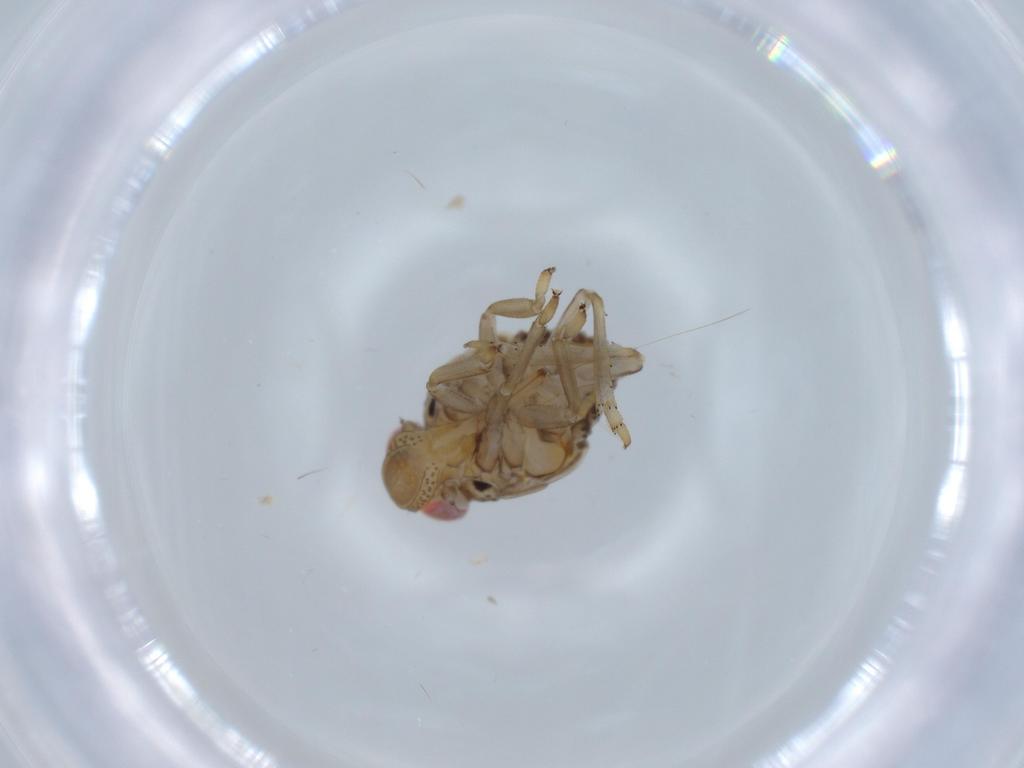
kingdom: Animalia
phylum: Arthropoda
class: Insecta
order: Hemiptera
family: Issidae
